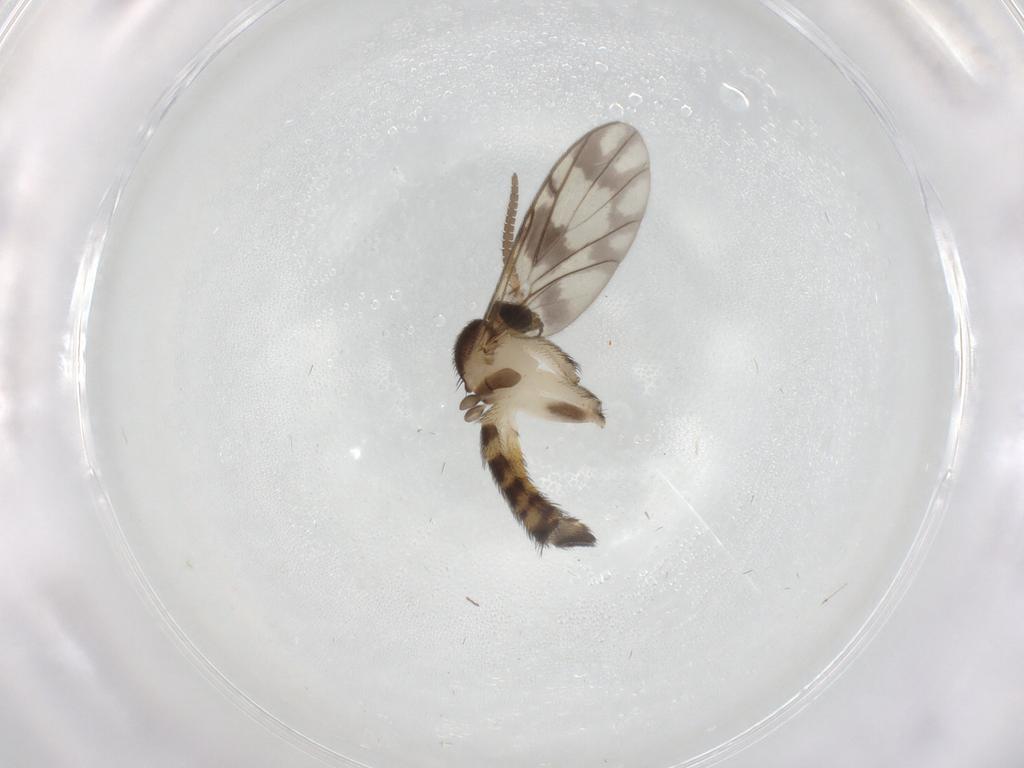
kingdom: Animalia
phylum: Arthropoda
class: Insecta
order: Diptera
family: Keroplatidae
